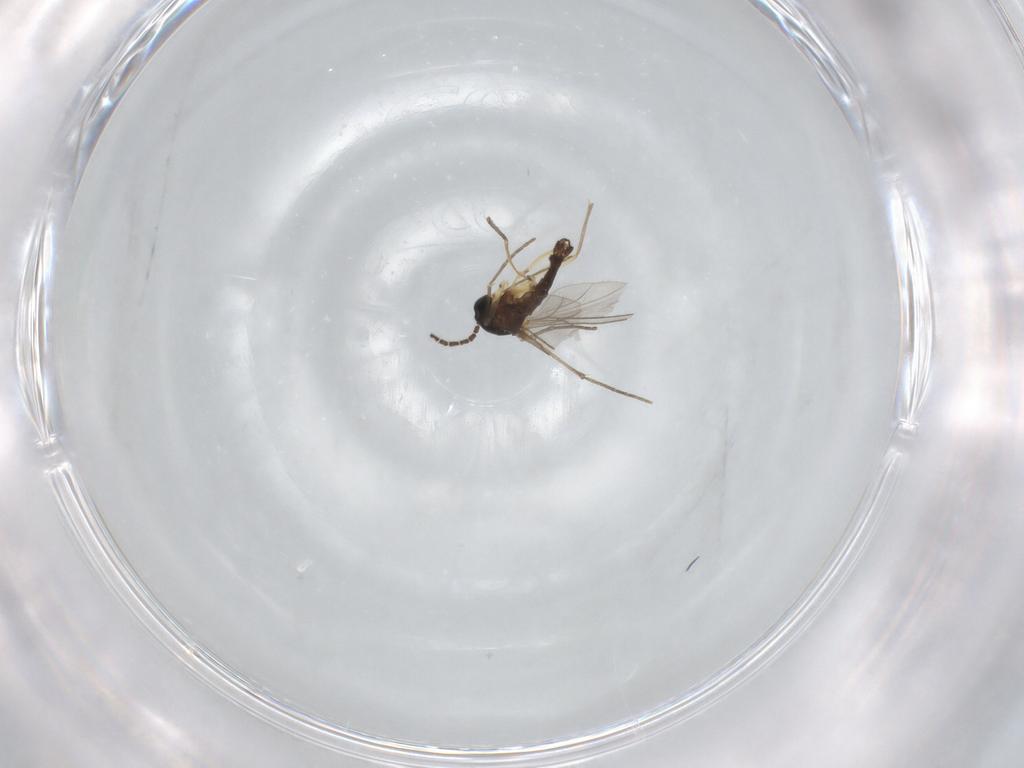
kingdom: Animalia
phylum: Arthropoda
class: Insecta
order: Diptera
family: Sciaridae
